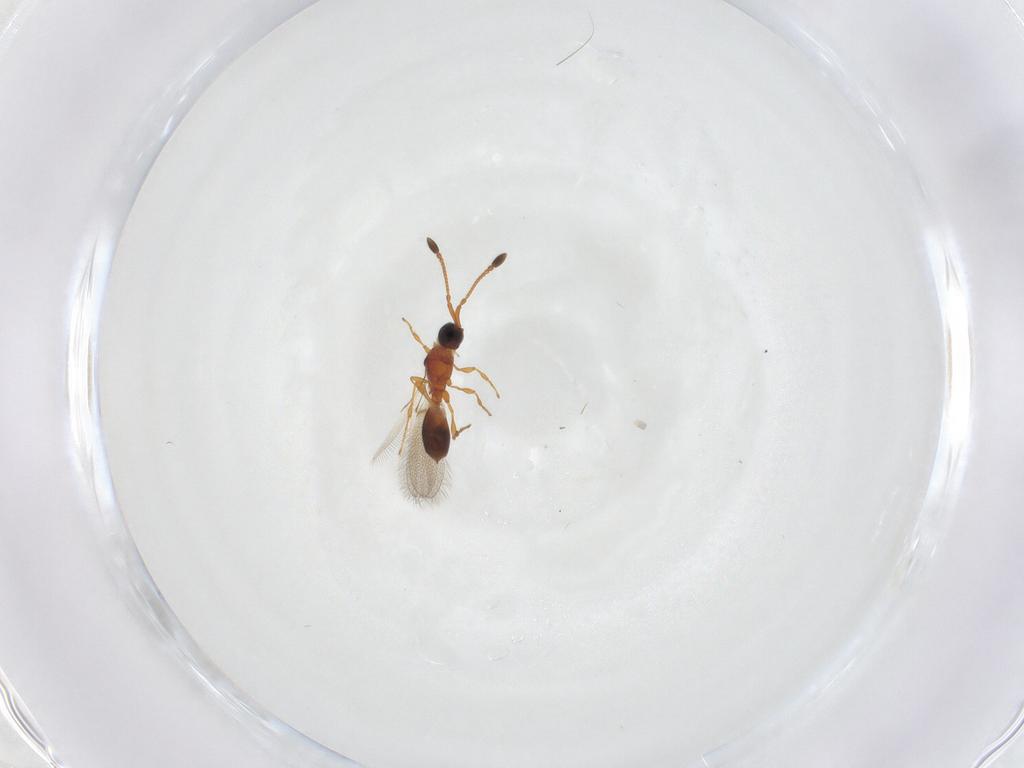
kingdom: Animalia
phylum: Arthropoda
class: Insecta
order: Hymenoptera
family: Diapriidae
